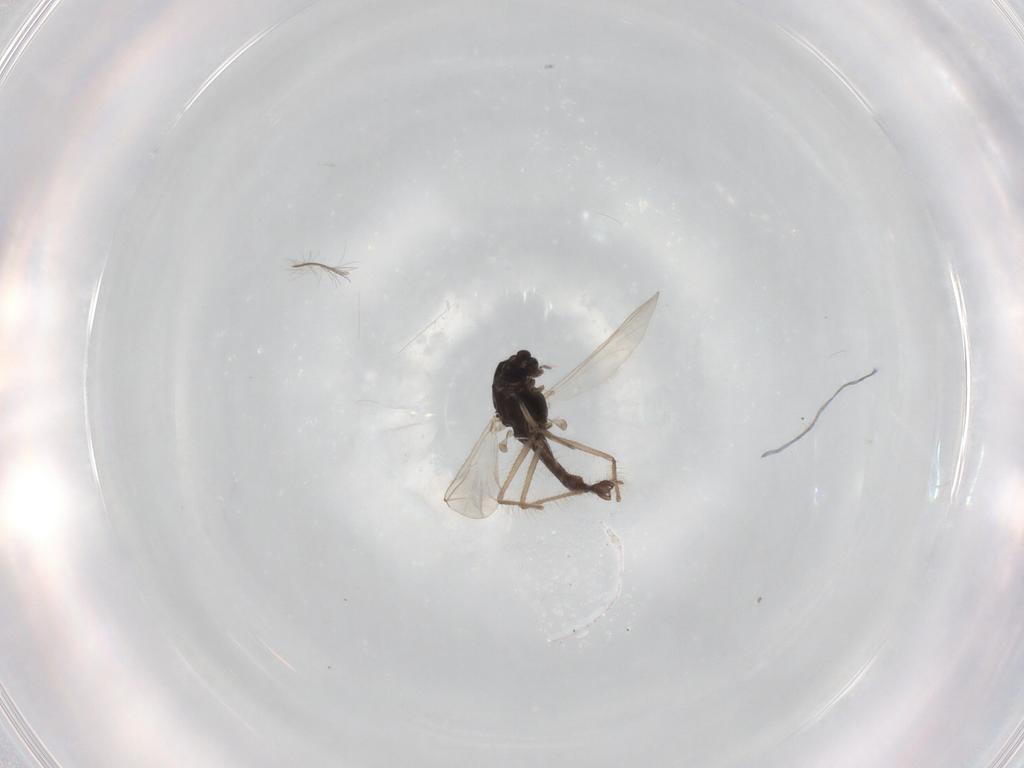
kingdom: Animalia
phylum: Arthropoda
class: Insecta
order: Diptera
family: Chironomidae
